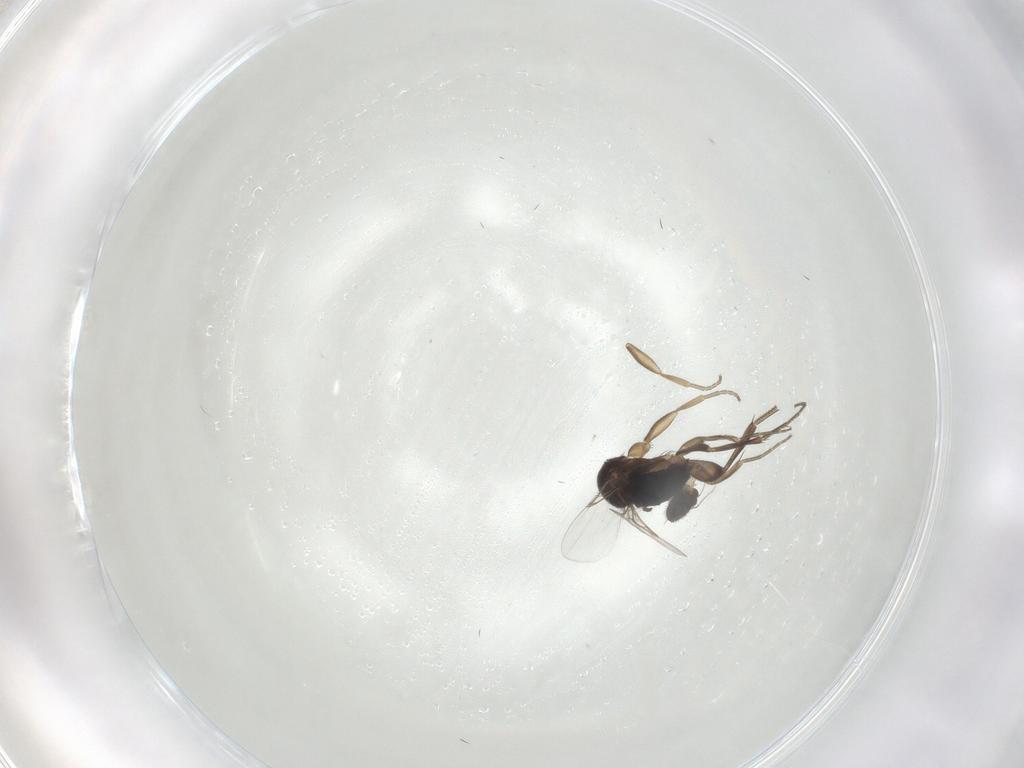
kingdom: Animalia
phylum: Arthropoda
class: Insecta
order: Diptera
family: Phoridae
